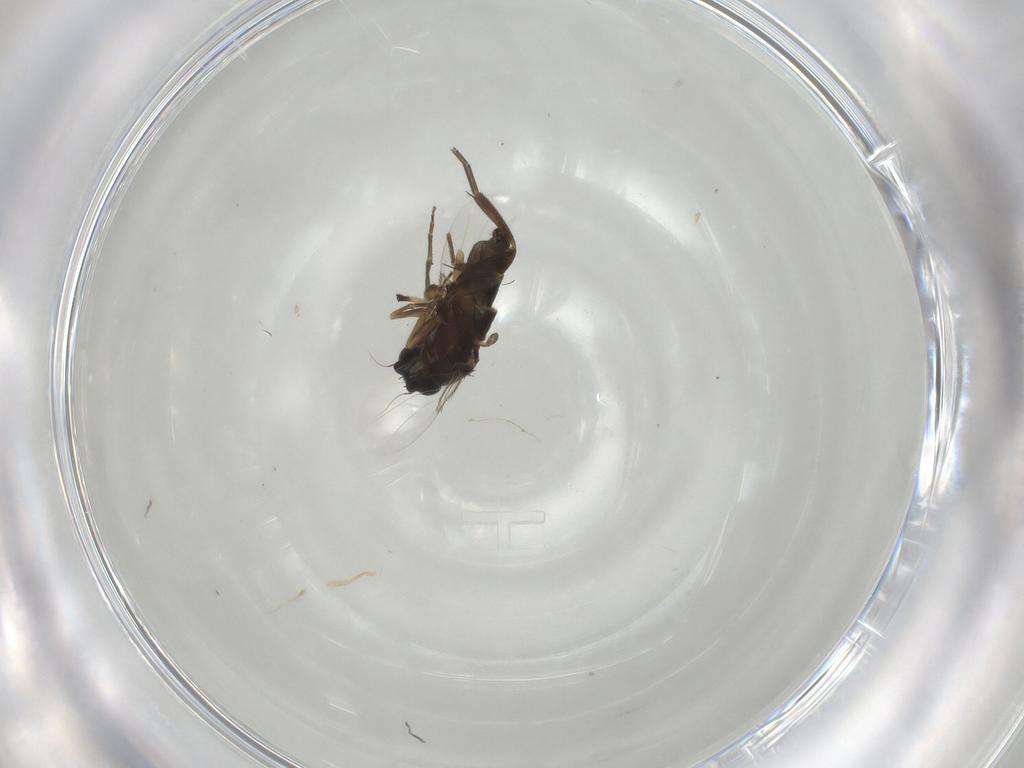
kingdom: Animalia
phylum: Arthropoda
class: Insecta
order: Diptera
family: Phoridae
